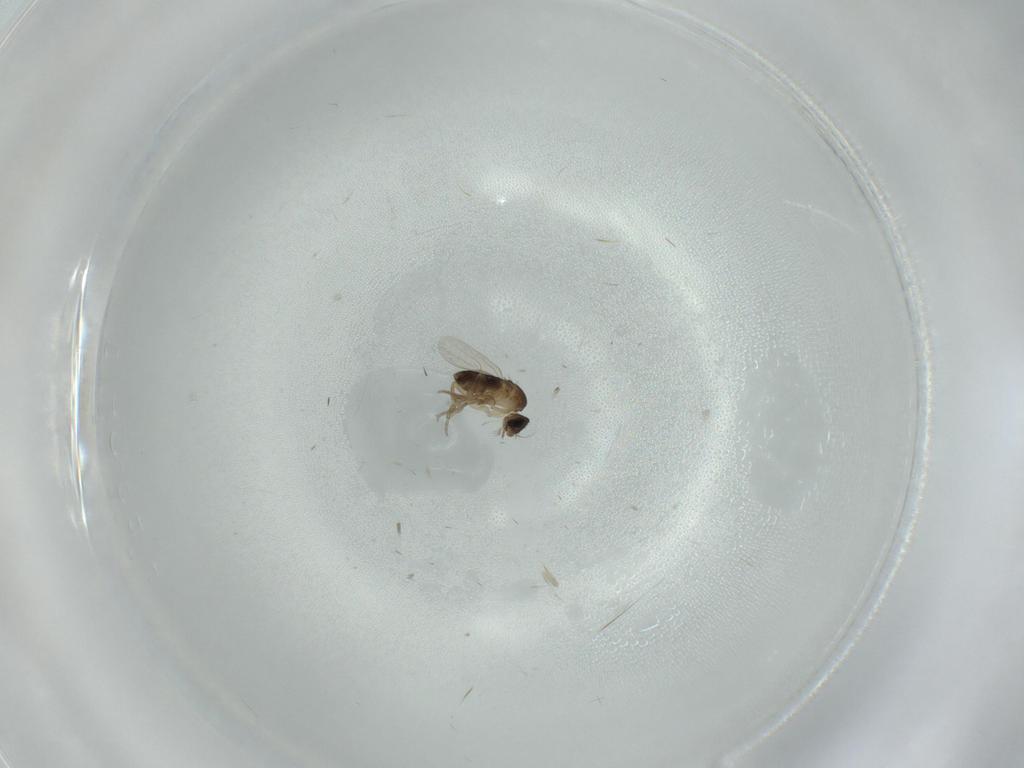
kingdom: Animalia
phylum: Arthropoda
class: Insecta
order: Diptera
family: Phoridae
